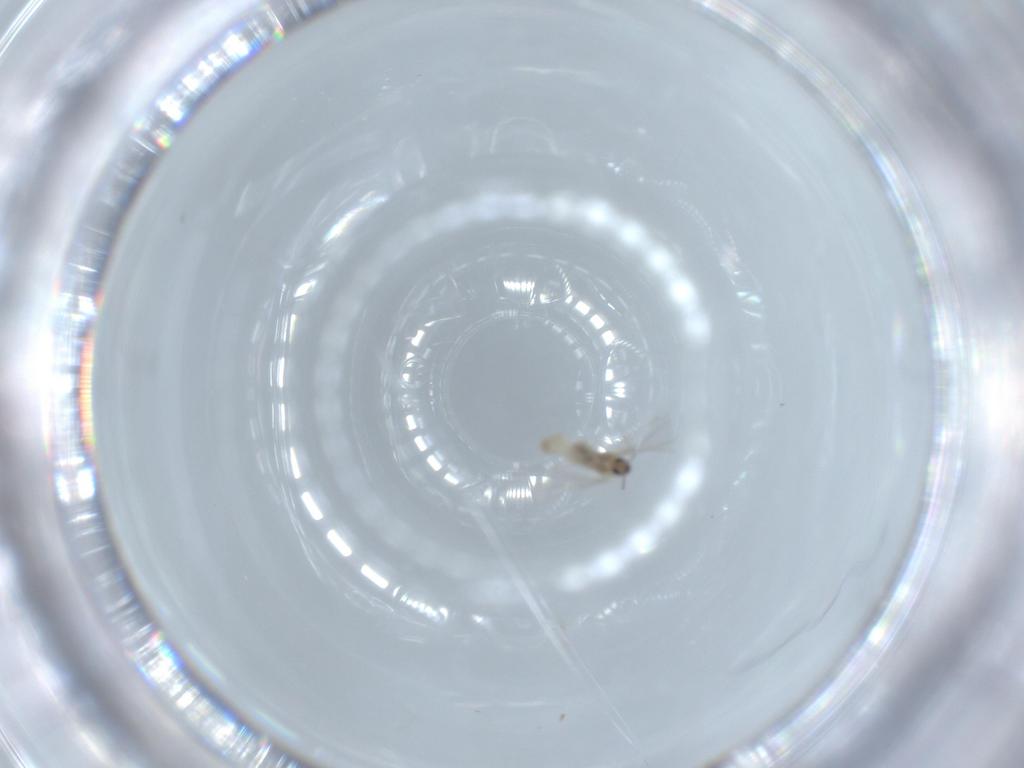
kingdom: Animalia
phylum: Arthropoda
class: Insecta
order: Diptera
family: Cecidomyiidae
